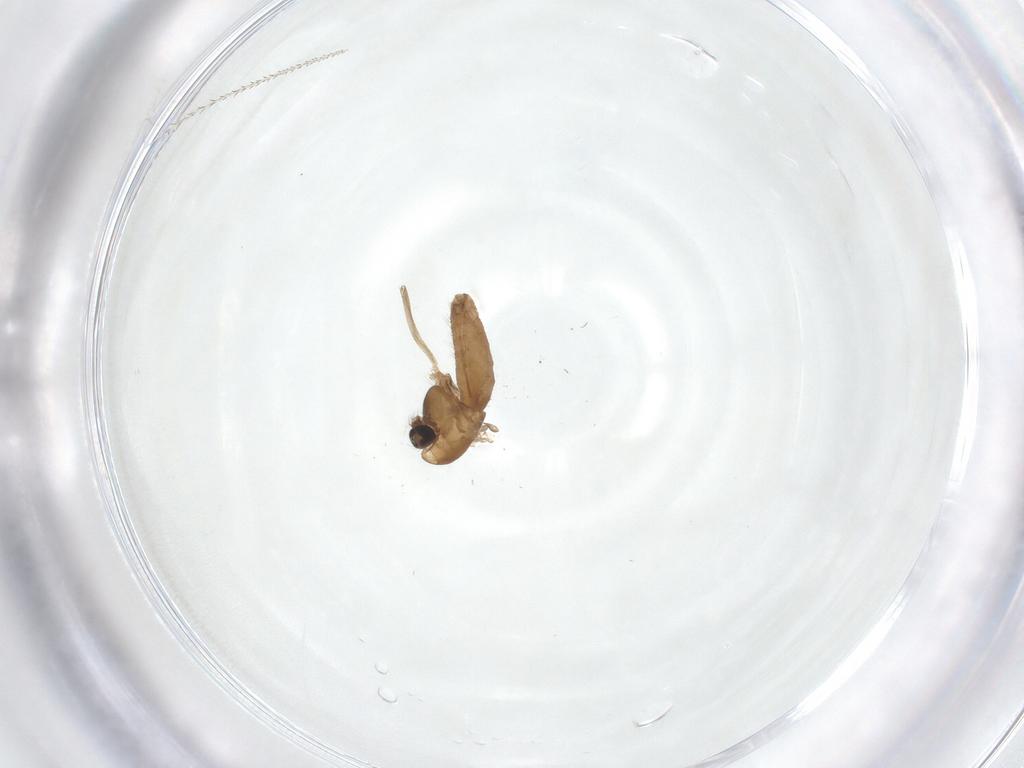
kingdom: Animalia
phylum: Arthropoda
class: Insecta
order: Diptera
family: Chironomidae
